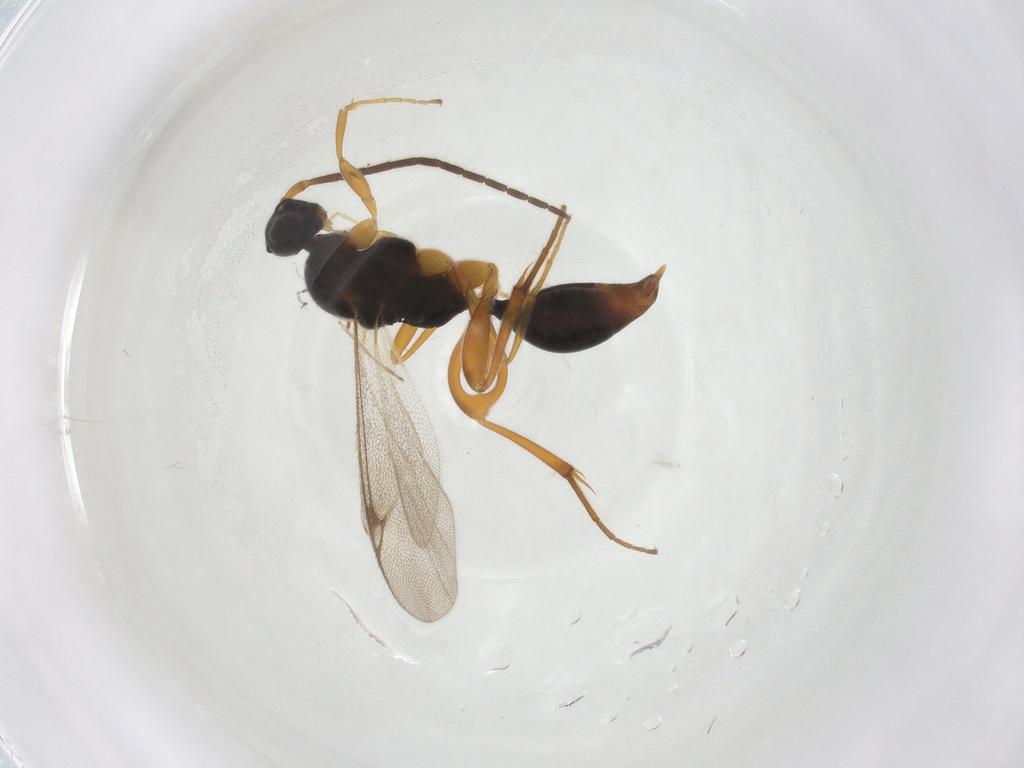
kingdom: Animalia
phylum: Arthropoda
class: Insecta
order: Hymenoptera
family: Proctotrupidae
